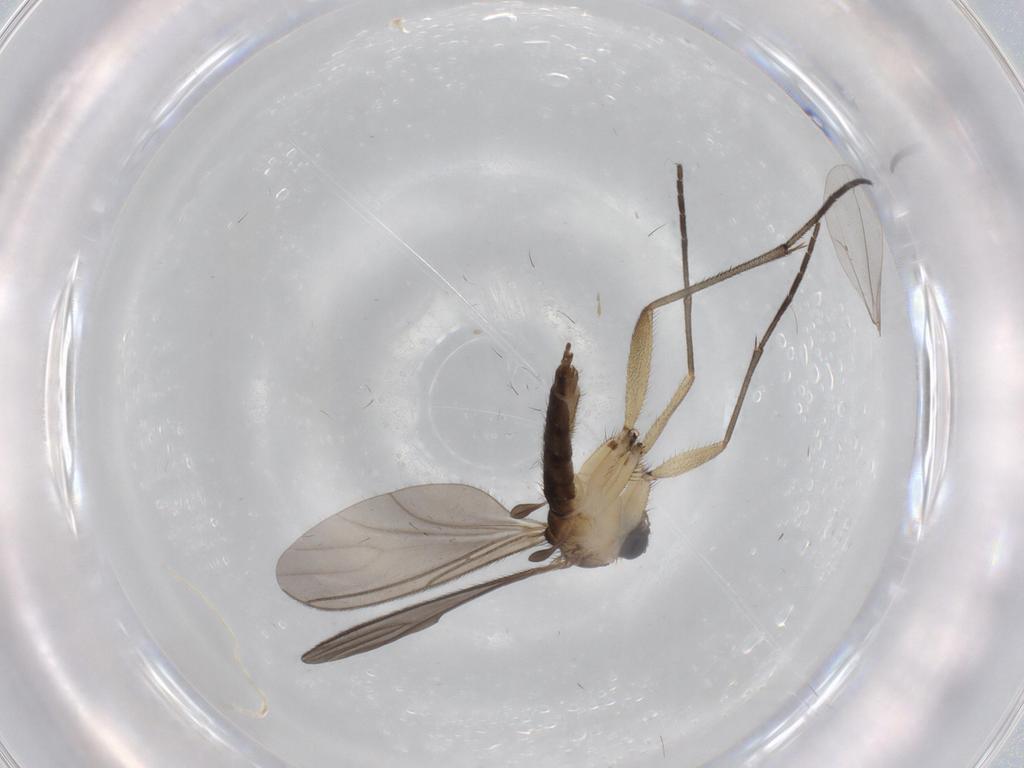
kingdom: Animalia
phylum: Arthropoda
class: Insecta
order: Diptera
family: Sciaridae
